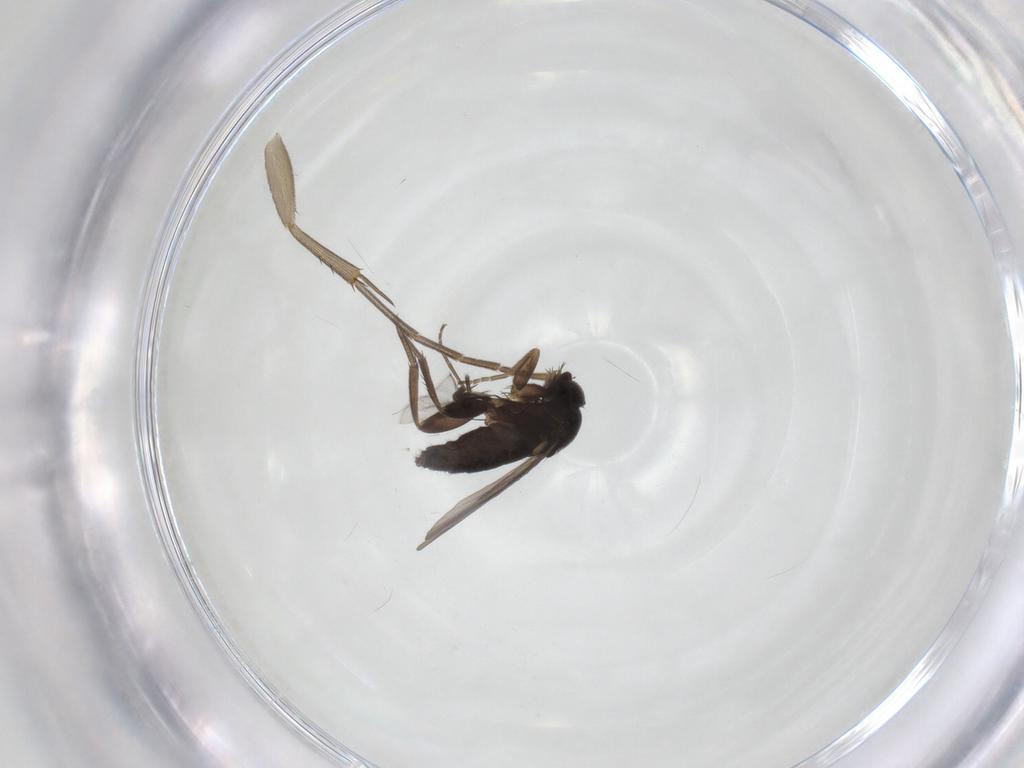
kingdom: Animalia
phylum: Arthropoda
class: Insecta
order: Diptera
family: Phoridae
